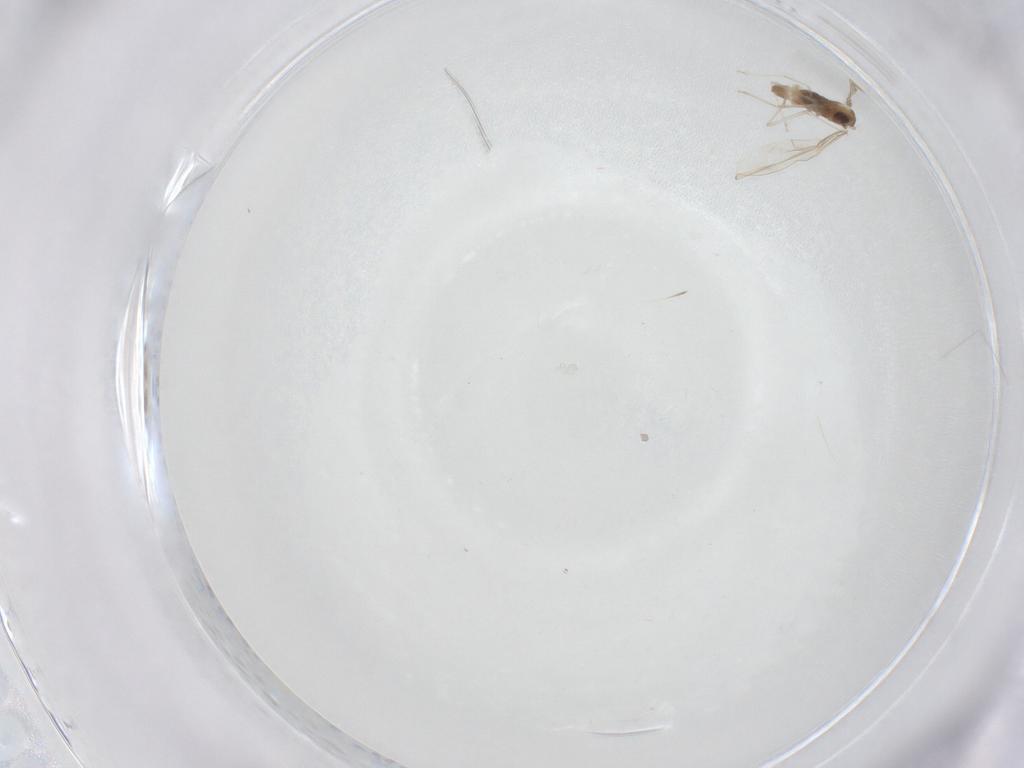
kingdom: Animalia
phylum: Arthropoda
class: Insecta
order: Diptera
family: Cecidomyiidae
